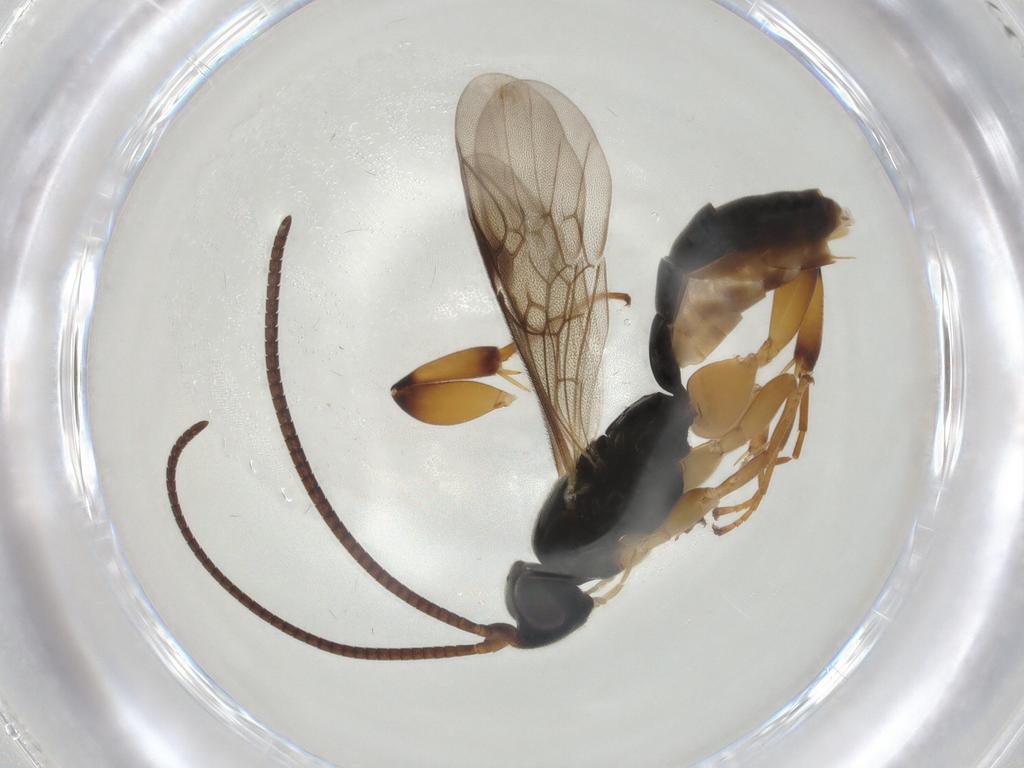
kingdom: Animalia
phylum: Arthropoda
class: Insecta
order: Hymenoptera
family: Ichneumonidae
